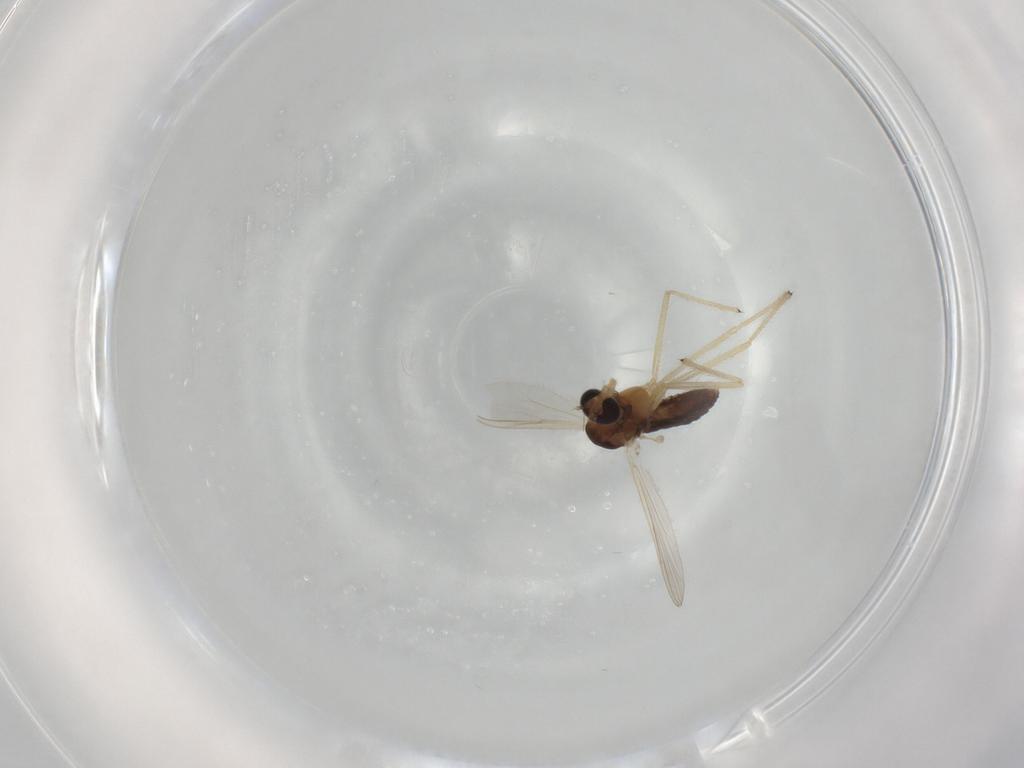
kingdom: Animalia
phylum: Arthropoda
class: Insecta
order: Diptera
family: Chironomidae
